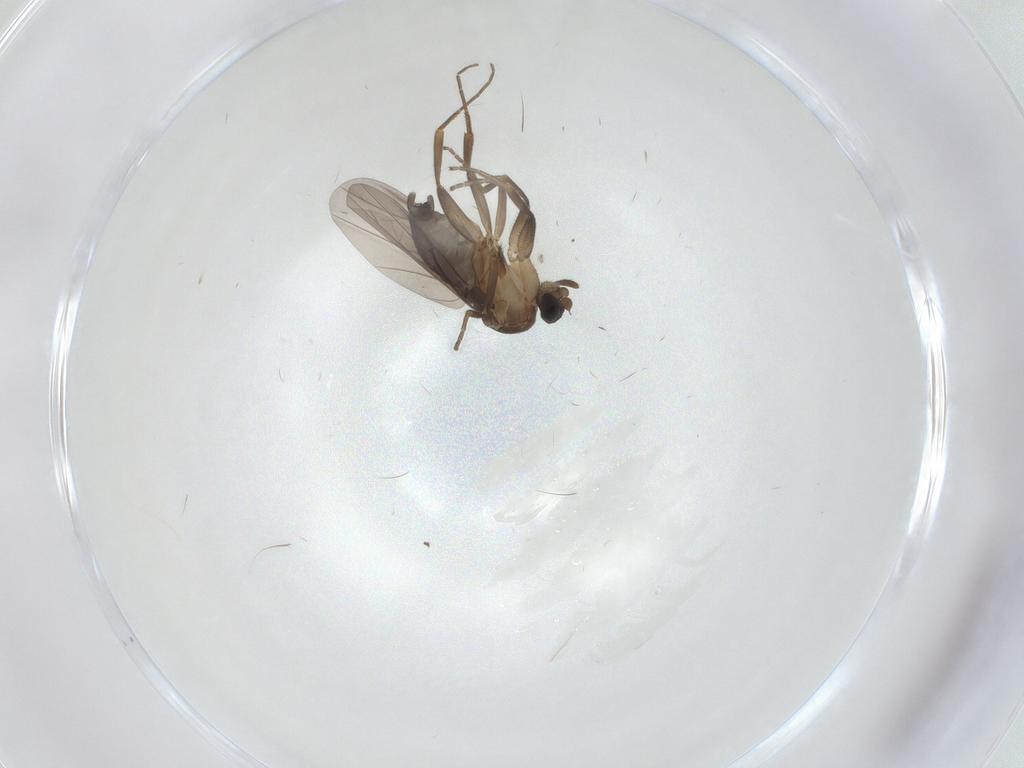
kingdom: Animalia
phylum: Arthropoda
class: Insecta
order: Diptera
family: Phoridae
